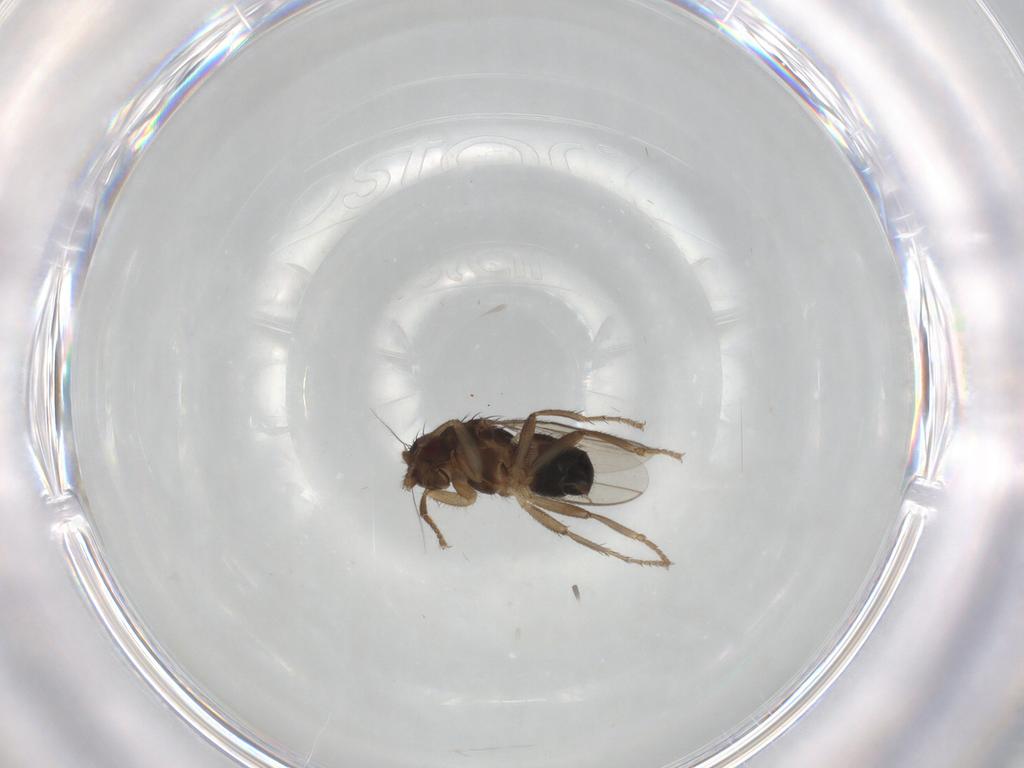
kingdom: Animalia
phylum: Arthropoda
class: Insecta
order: Diptera
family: Sphaeroceridae
